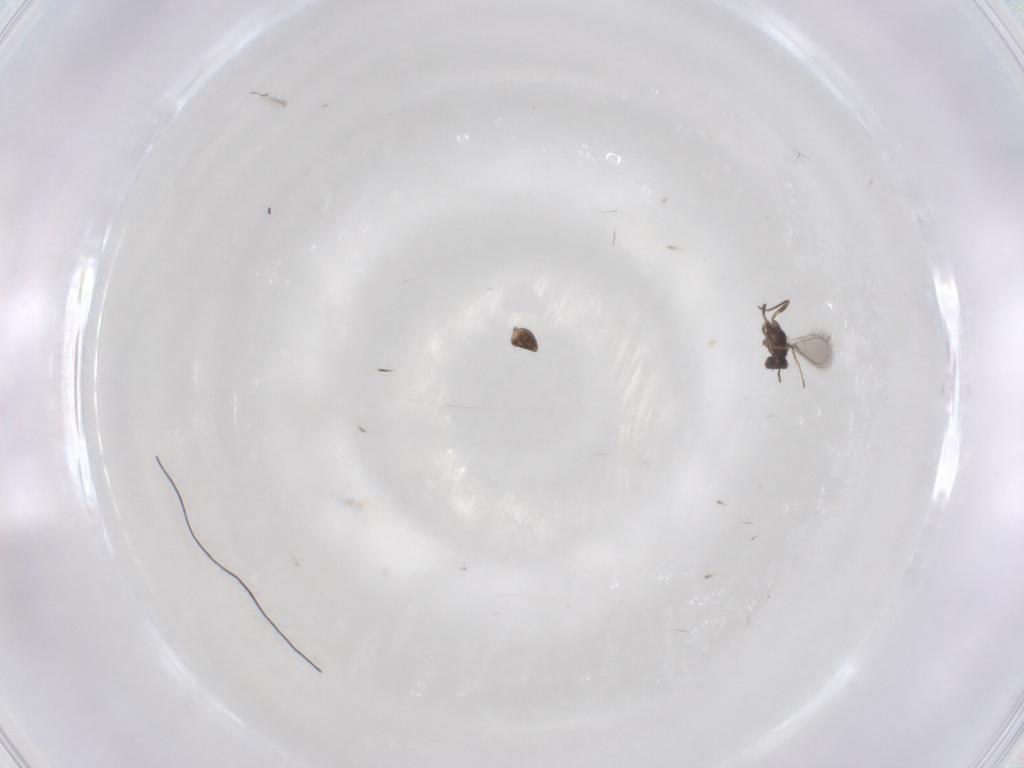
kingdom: Animalia
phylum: Arthropoda
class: Insecta
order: Hymenoptera
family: Mymaridae
